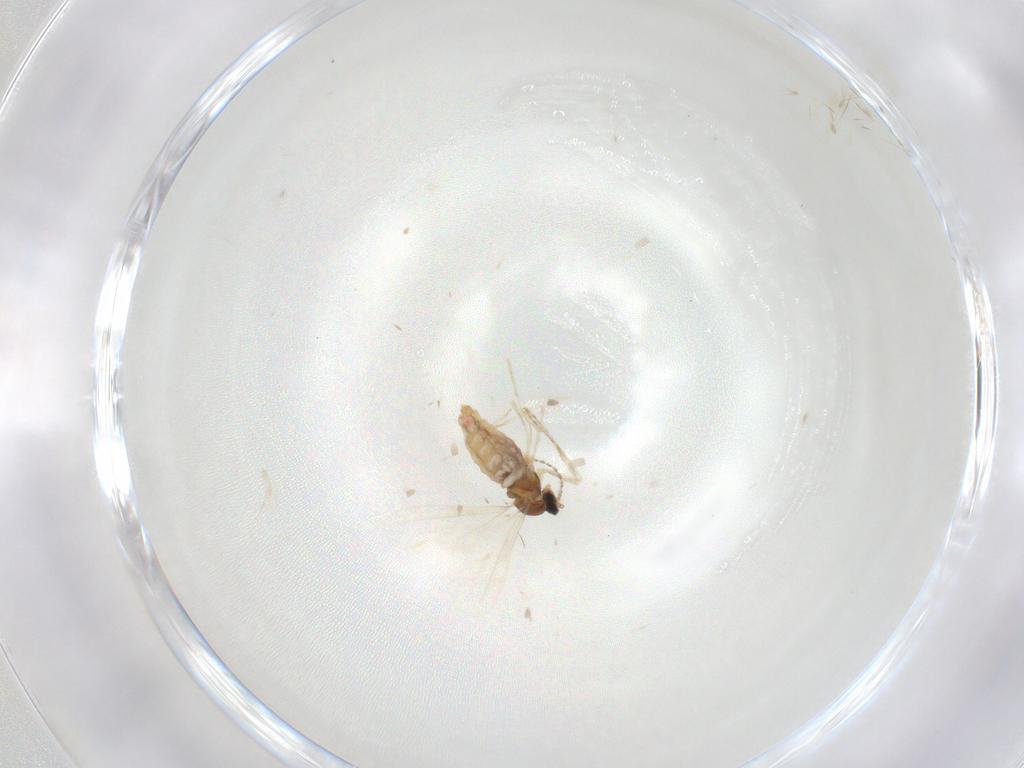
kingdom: Animalia
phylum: Arthropoda
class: Insecta
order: Diptera
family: Cecidomyiidae
